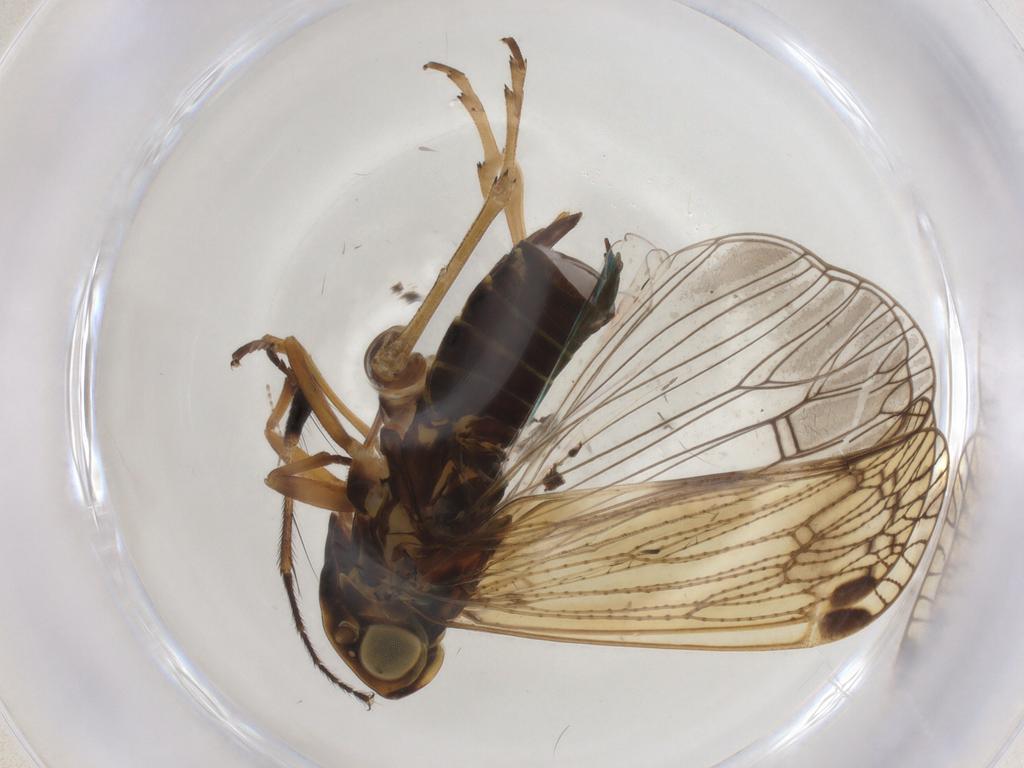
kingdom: Animalia
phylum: Arthropoda
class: Insecta
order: Hemiptera
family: Cixiidae
